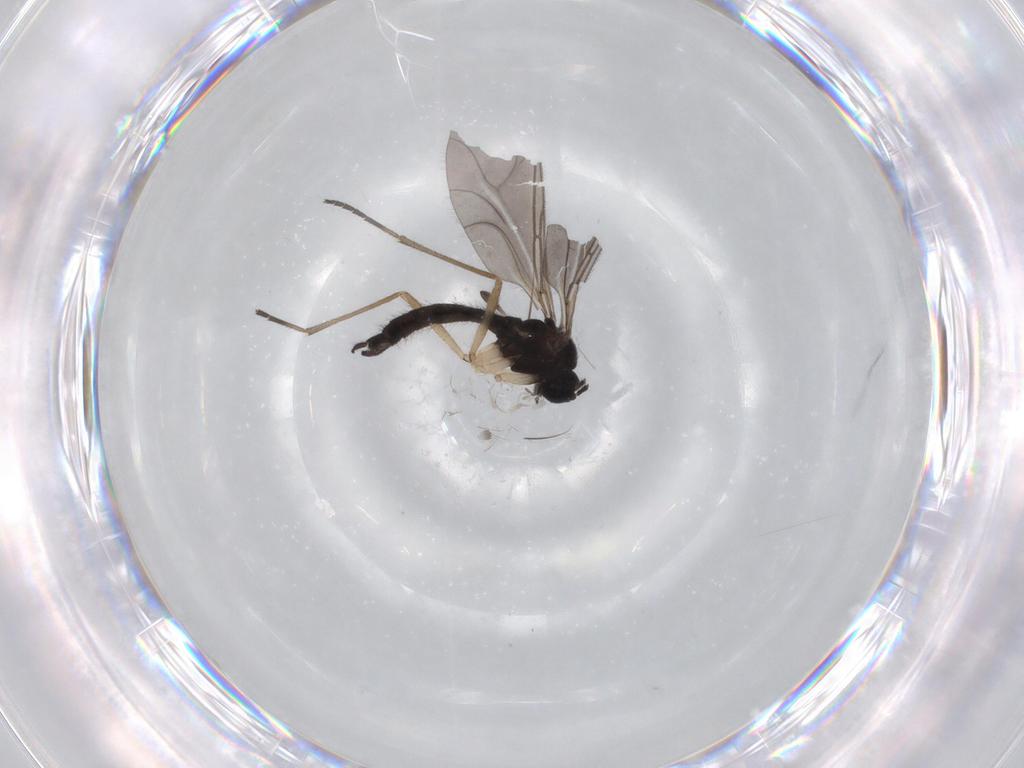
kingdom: Animalia
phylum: Arthropoda
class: Insecta
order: Diptera
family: Sciaridae
